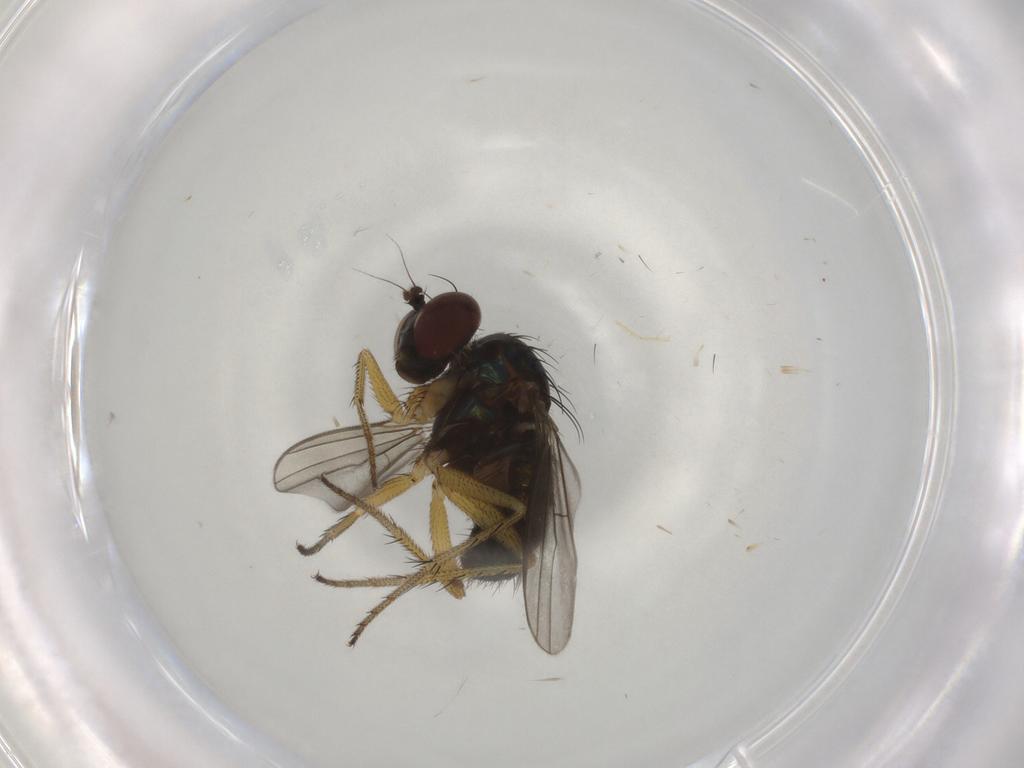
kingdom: Animalia
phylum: Arthropoda
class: Insecta
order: Diptera
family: Dolichopodidae
